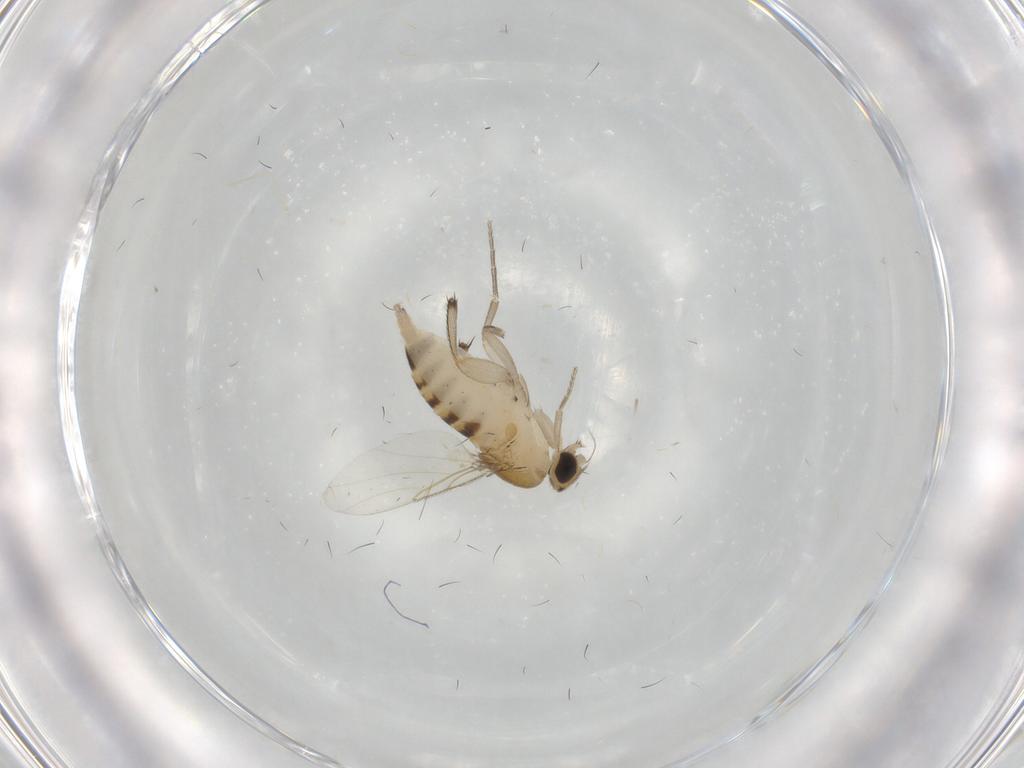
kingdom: Animalia
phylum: Arthropoda
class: Insecta
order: Diptera
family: Phoridae
